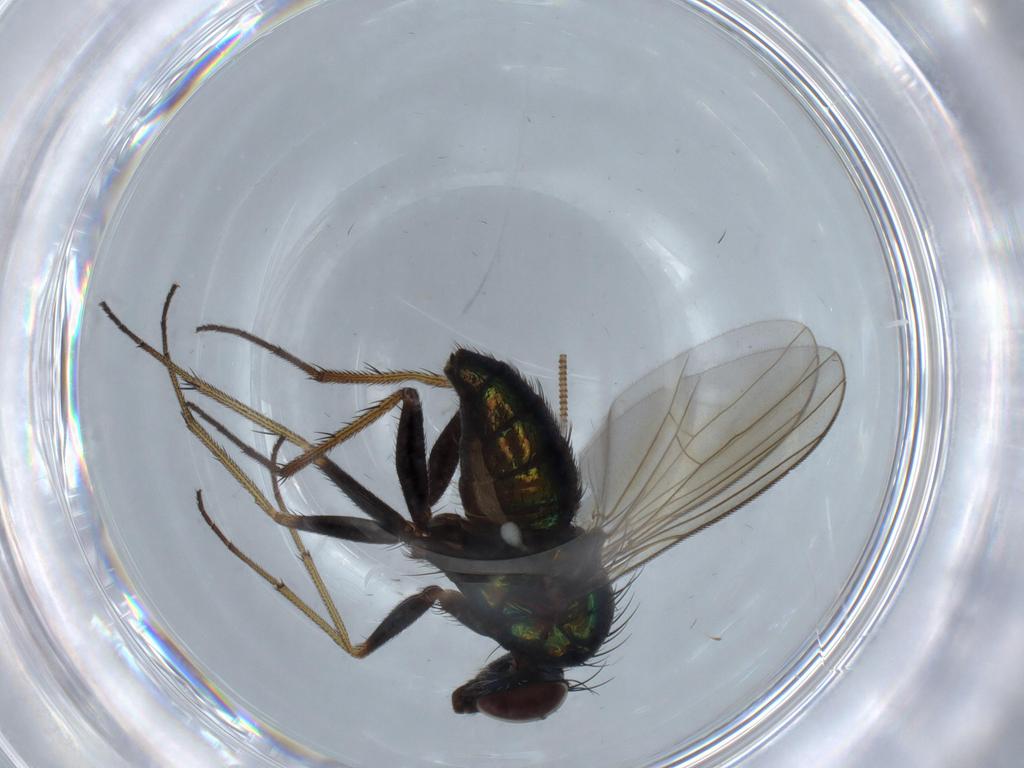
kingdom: Animalia
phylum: Arthropoda
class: Insecta
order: Diptera
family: Dolichopodidae
